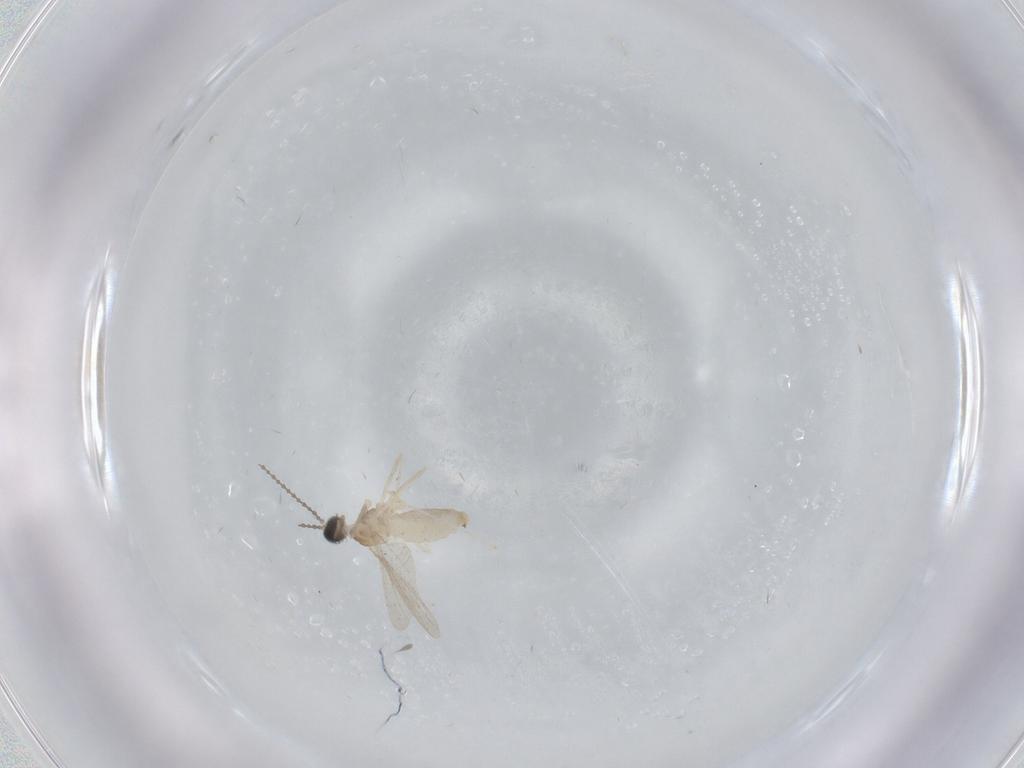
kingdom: Animalia
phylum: Arthropoda
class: Insecta
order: Diptera
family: Cecidomyiidae
